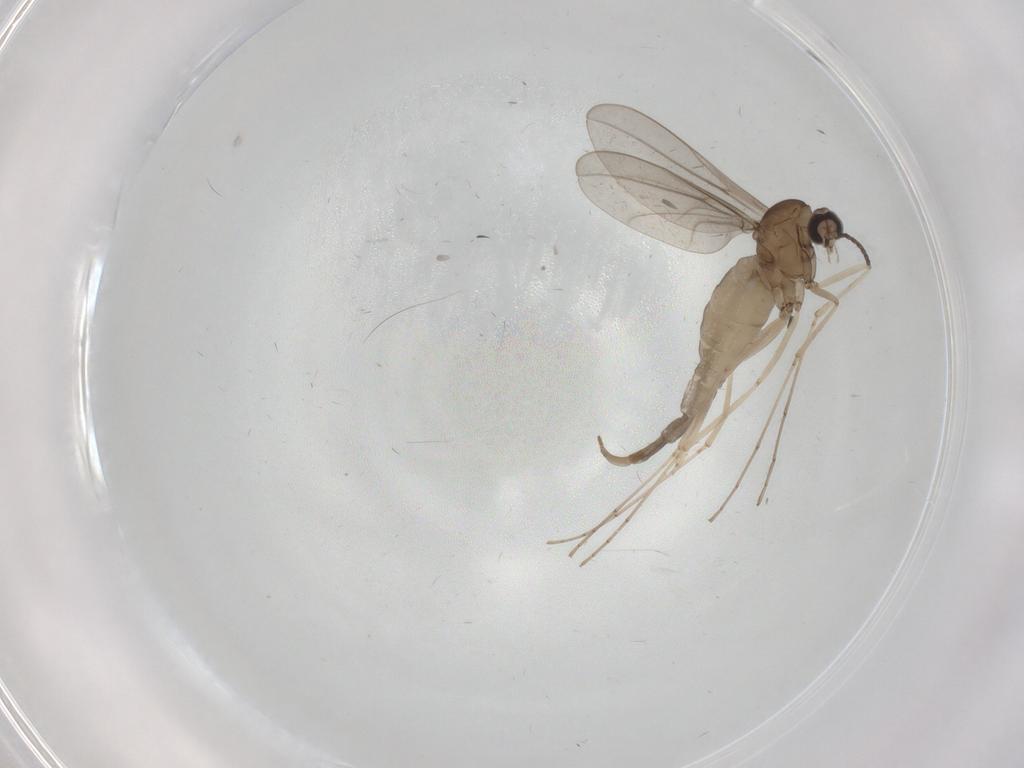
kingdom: Animalia
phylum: Arthropoda
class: Insecta
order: Diptera
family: Cecidomyiidae
